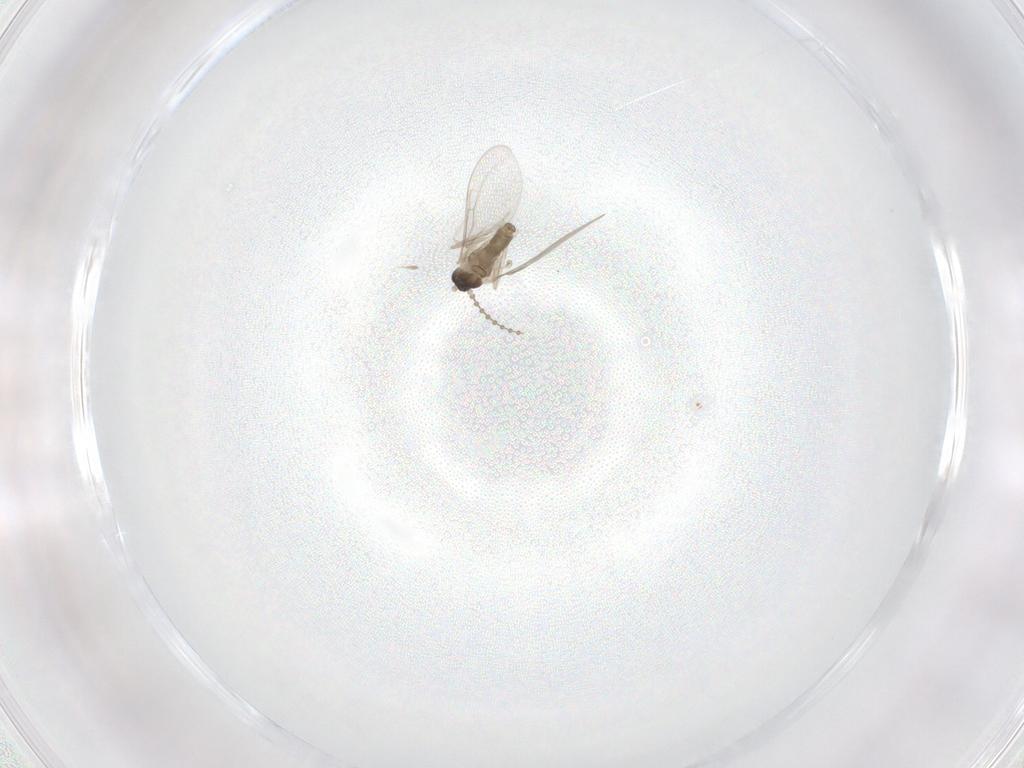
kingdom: Animalia
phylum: Arthropoda
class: Insecta
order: Diptera
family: Cecidomyiidae
